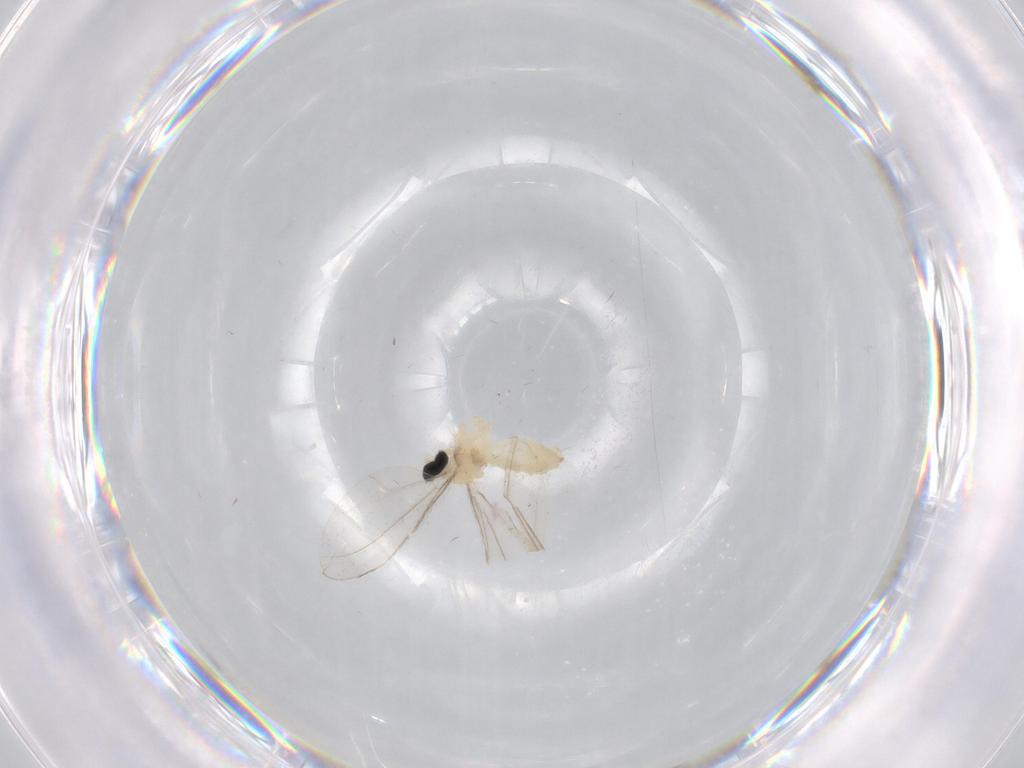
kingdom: Animalia
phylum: Arthropoda
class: Insecta
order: Diptera
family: Cecidomyiidae
